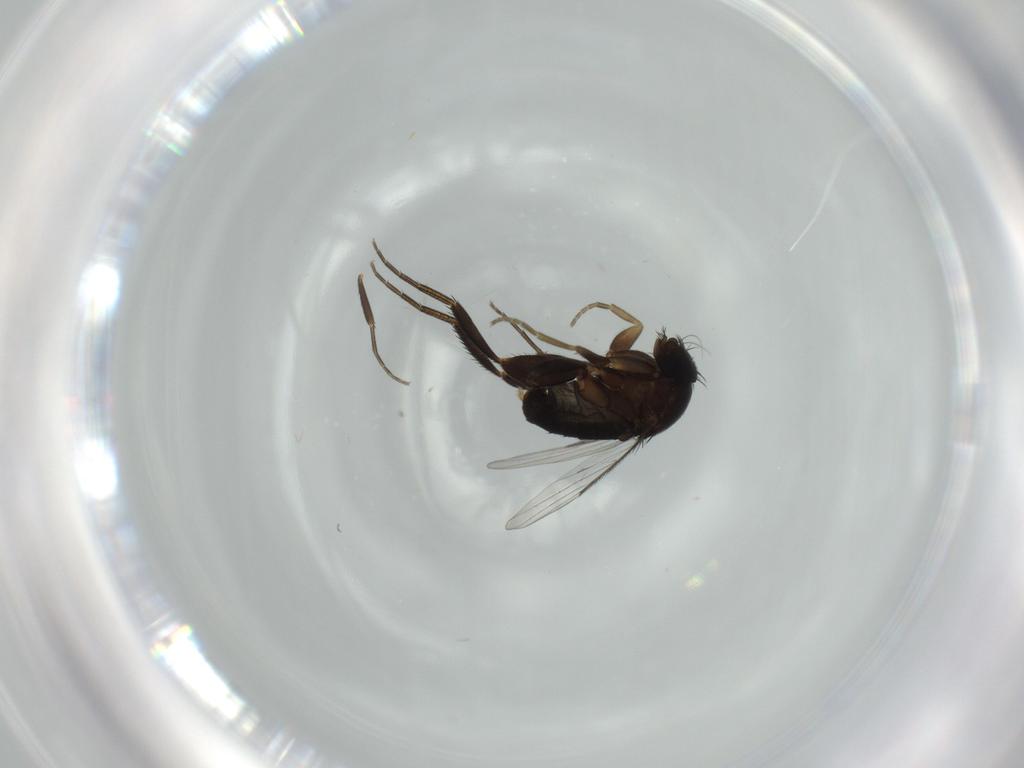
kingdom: Animalia
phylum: Arthropoda
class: Insecta
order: Diptera
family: Phoridae
